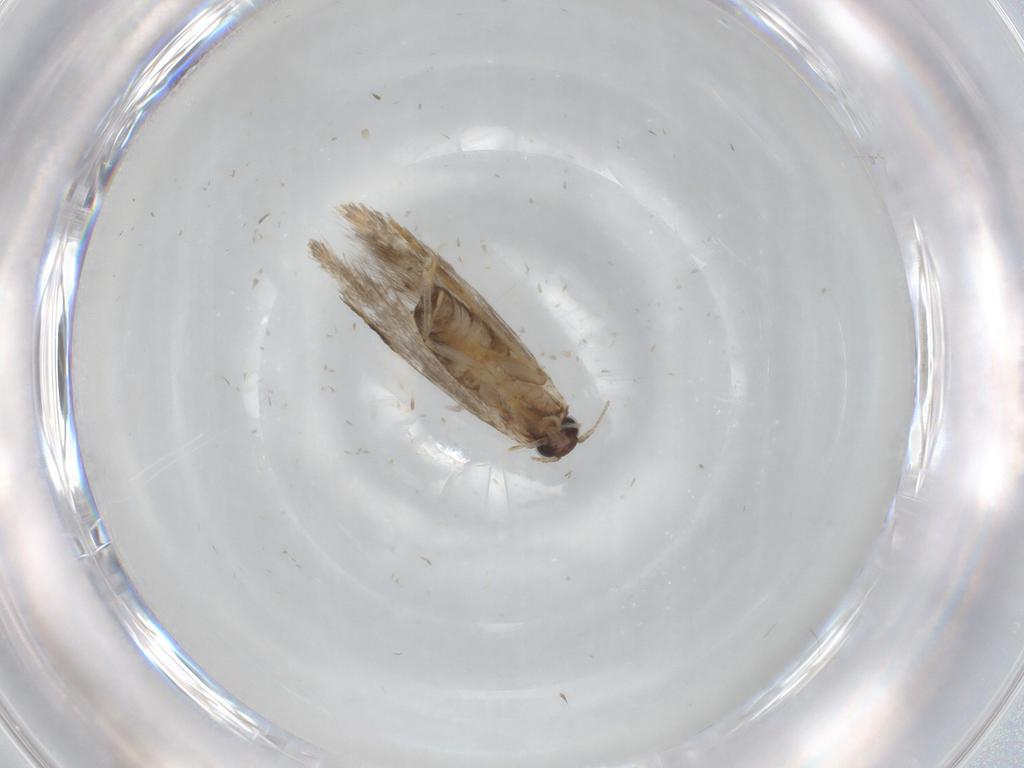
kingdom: Animalia
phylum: Arthropoda
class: Insecta
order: Lepidoptera
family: Tineidae
